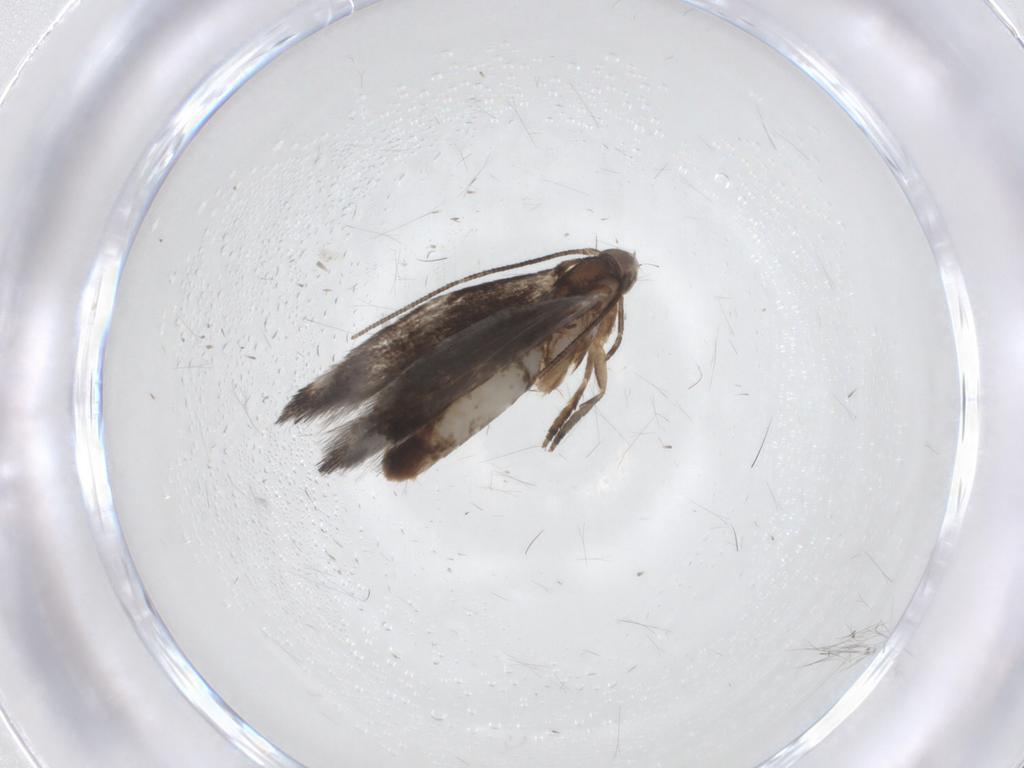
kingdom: Animalia
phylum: Arthropoda
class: Insecta
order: Lepidoptera
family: Noctuidae
